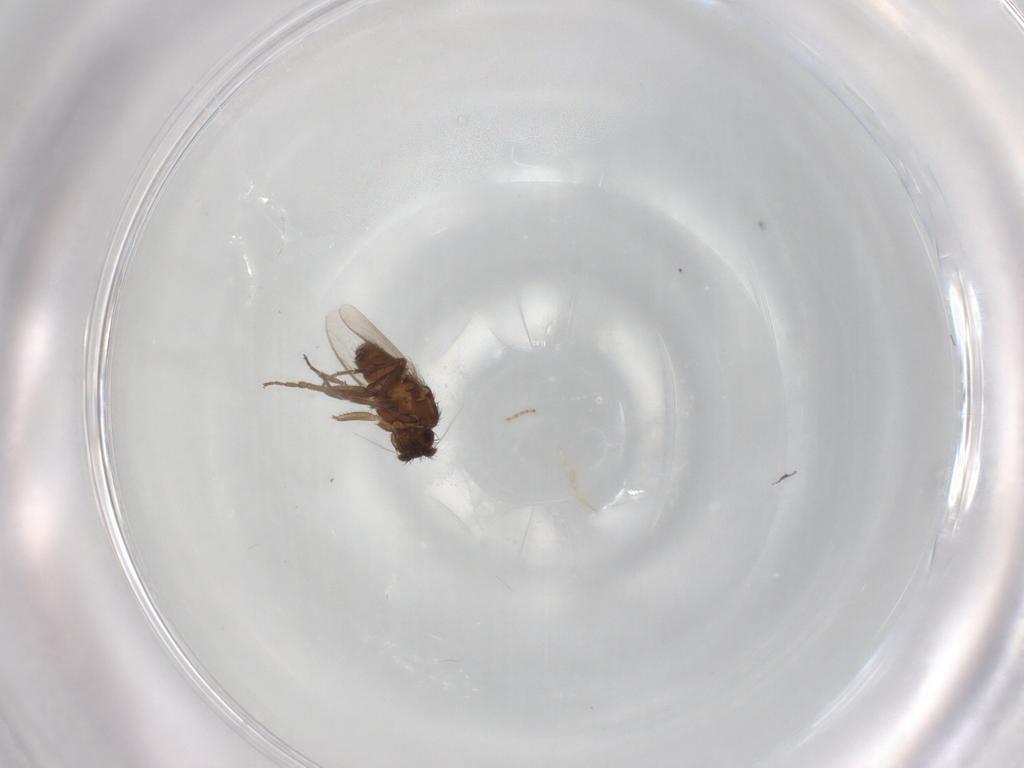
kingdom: Animalia
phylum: Arthropoda
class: Insecta
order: Diptera
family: Sphaeroceridae
